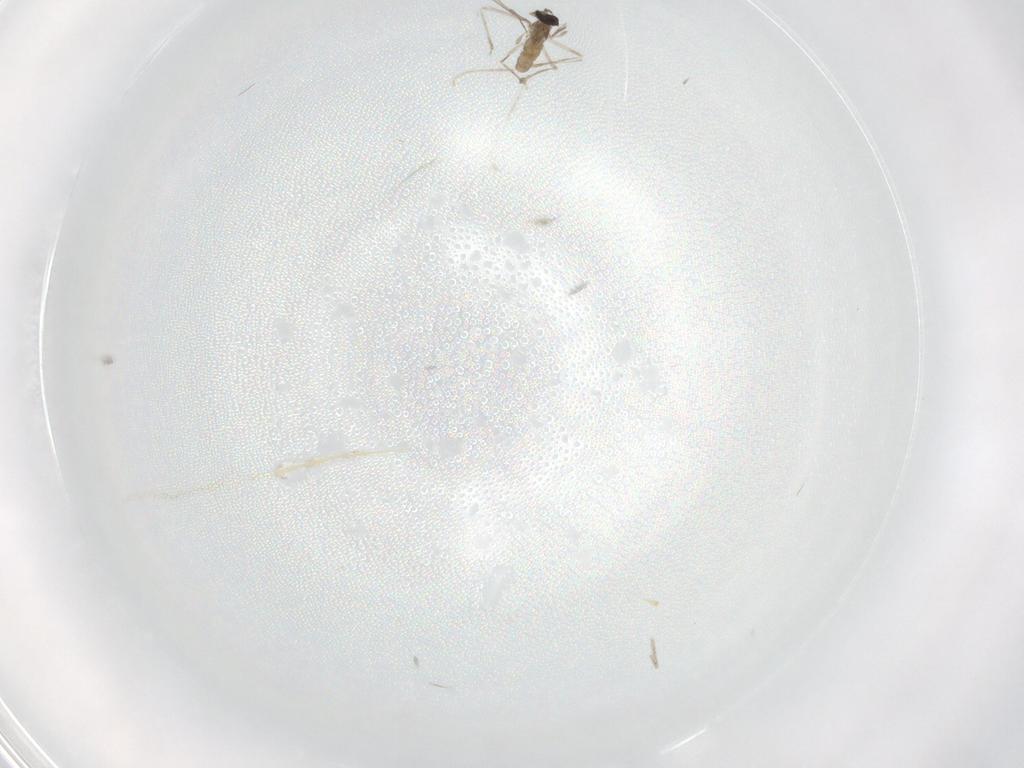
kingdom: Animalia
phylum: Arthropoda
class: Insecta
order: Diptera
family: Cecidomyiidae
